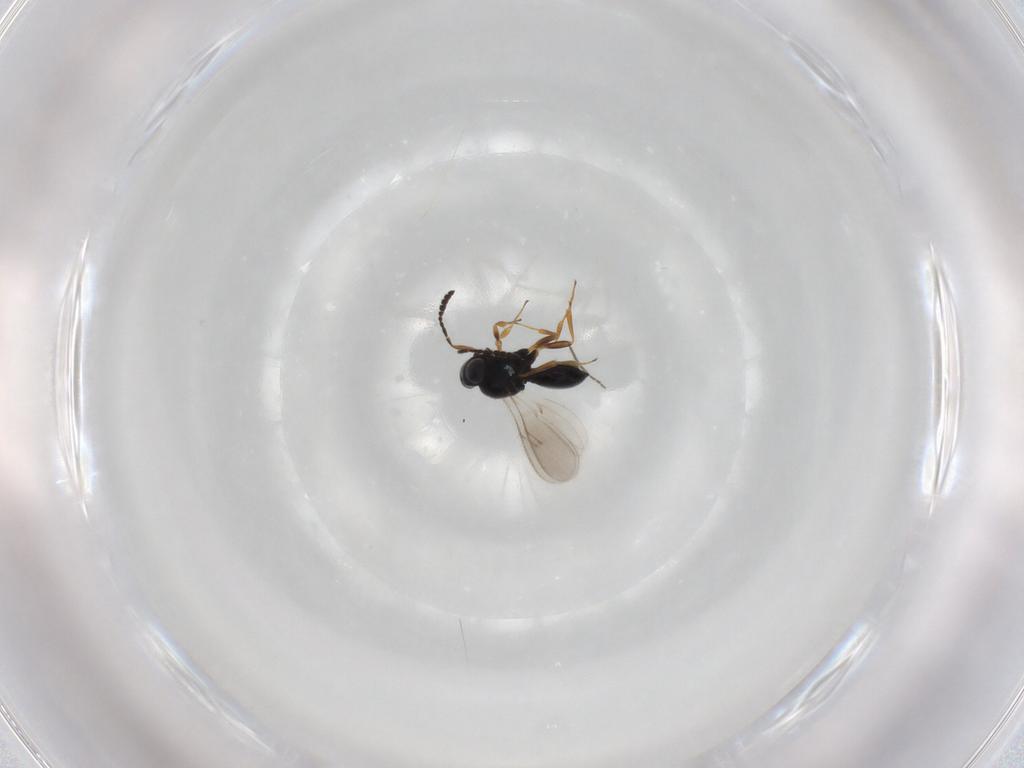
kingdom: Animalia
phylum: Arthropoda
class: Insecta
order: Hymenoptera
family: Scelionidae
